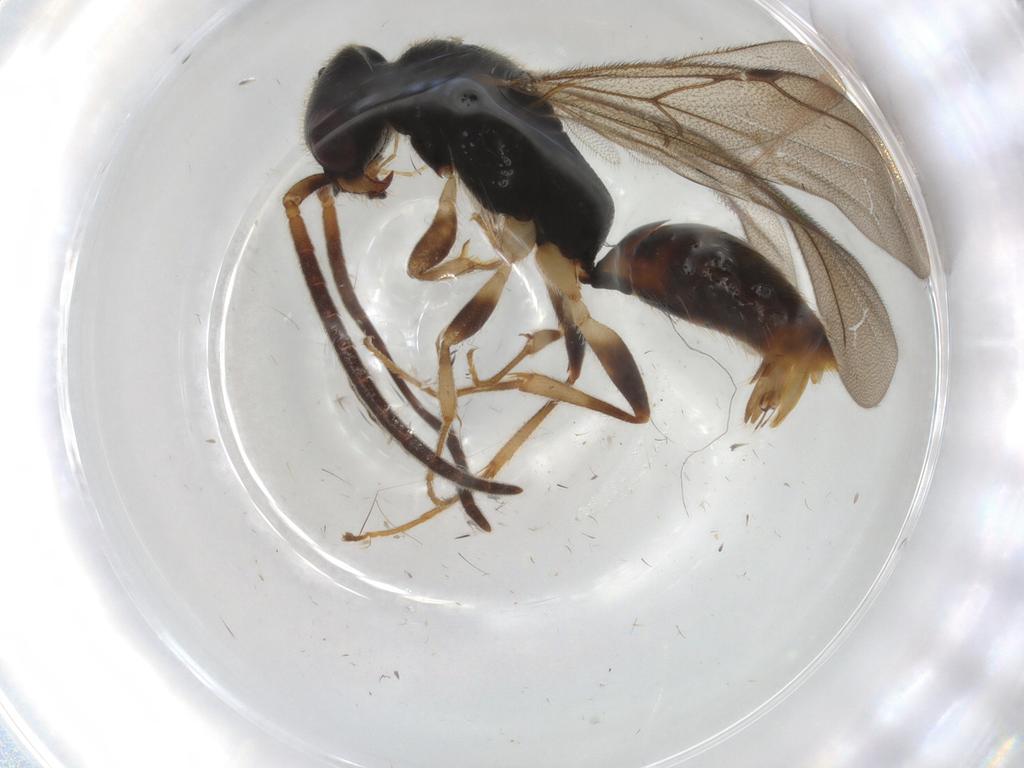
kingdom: Animalia
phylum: Arthropoda
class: Insecta
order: Hymenoptera
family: Bethylidae
